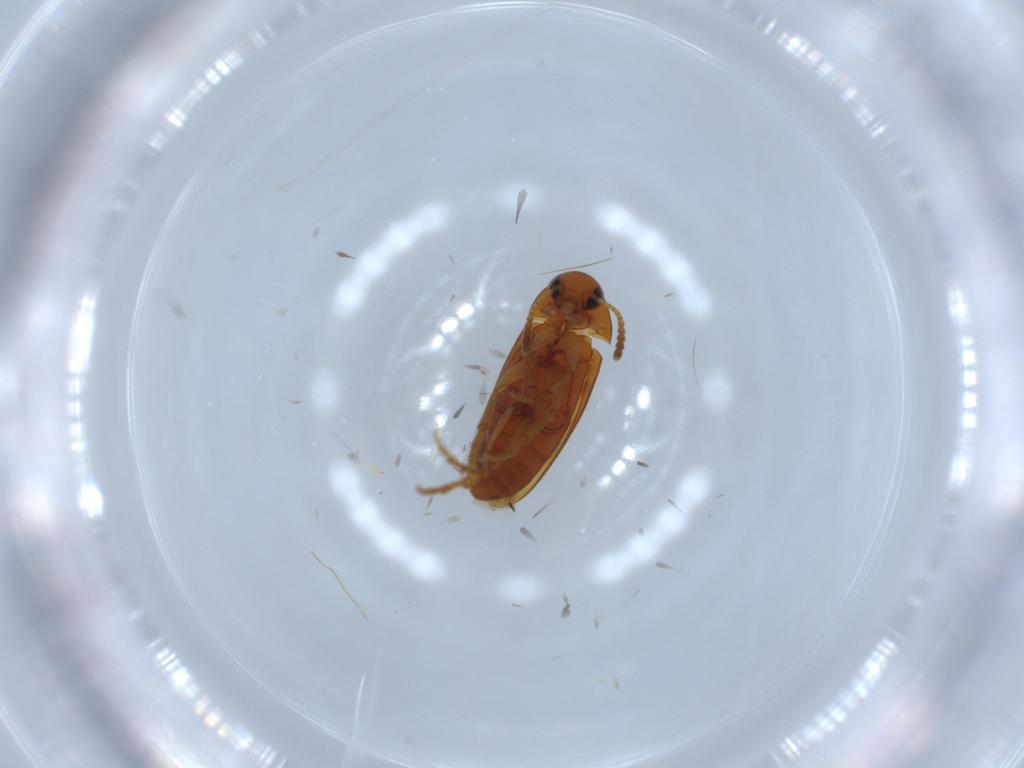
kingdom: Animalia
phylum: Arthropoda
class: Insecta
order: Coleoptera
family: Scraptiidae
